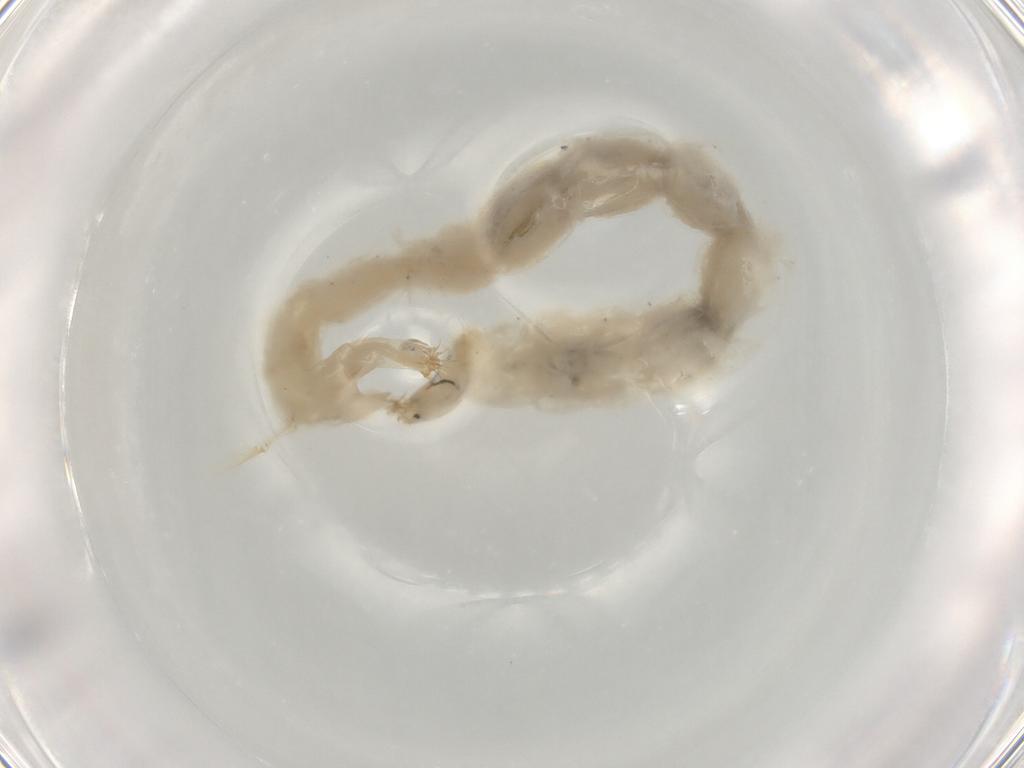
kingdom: Animalia
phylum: Arthropoda
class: Insecta
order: Diptera
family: Chironomidae
